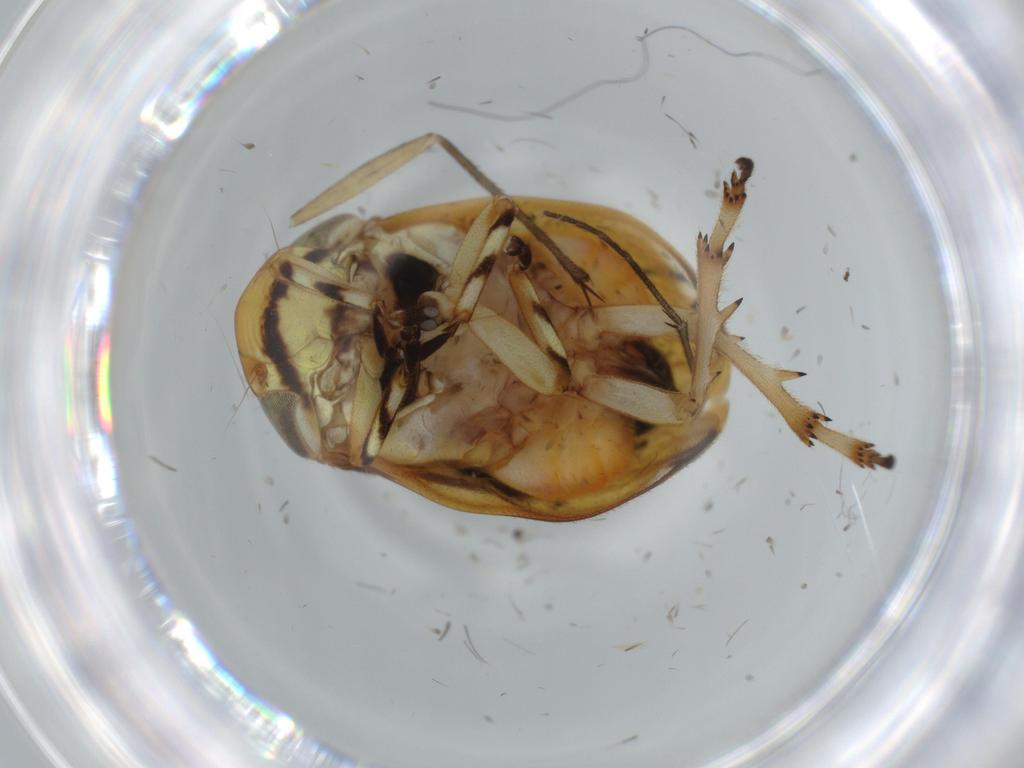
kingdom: Animalia
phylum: Arthropoda
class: Insecta
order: Hemiptera
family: Clastopteridae
